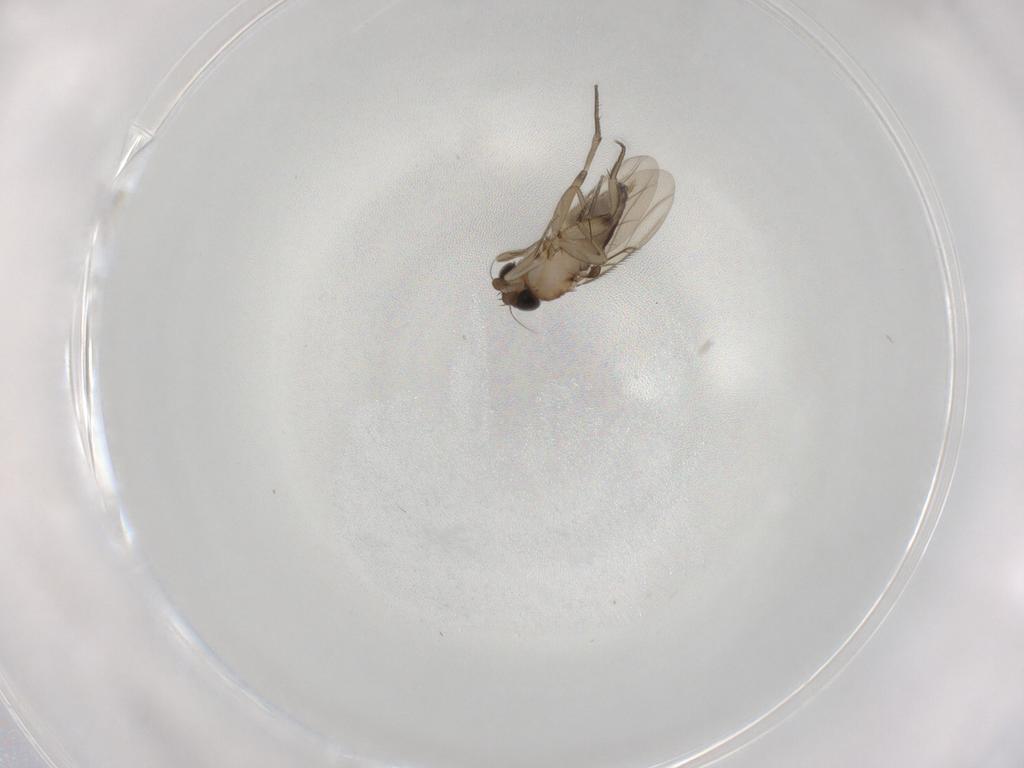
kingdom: Animalia
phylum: Arthropoda
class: Insecta
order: Diptera
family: Phoridae
